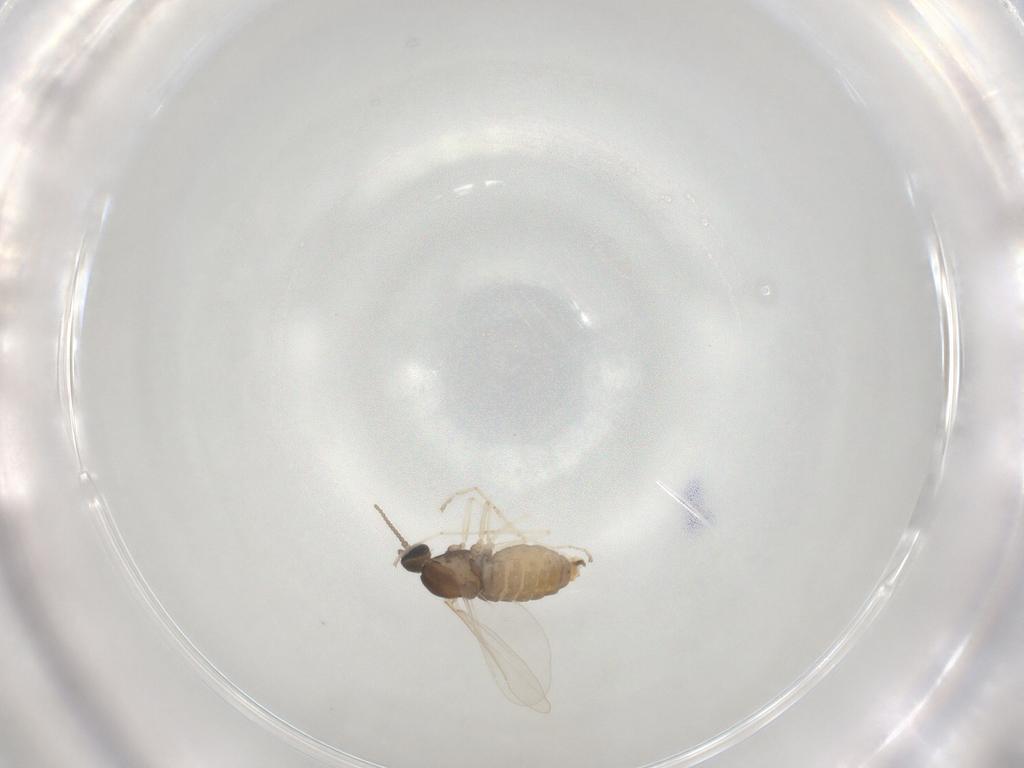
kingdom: Animalia
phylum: Arthropoda
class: Insecta
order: Diptera
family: Cecidomyiidae
